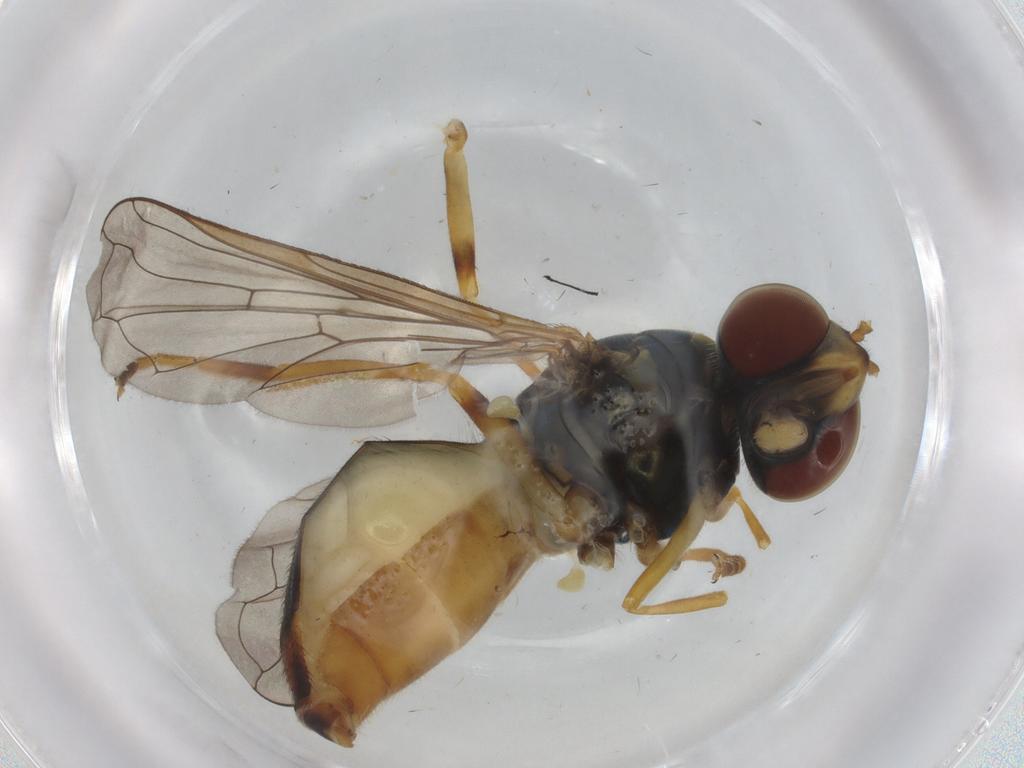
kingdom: Animalia
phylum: Arthropoda
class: Insecta
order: Diptera
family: Syrphidae
